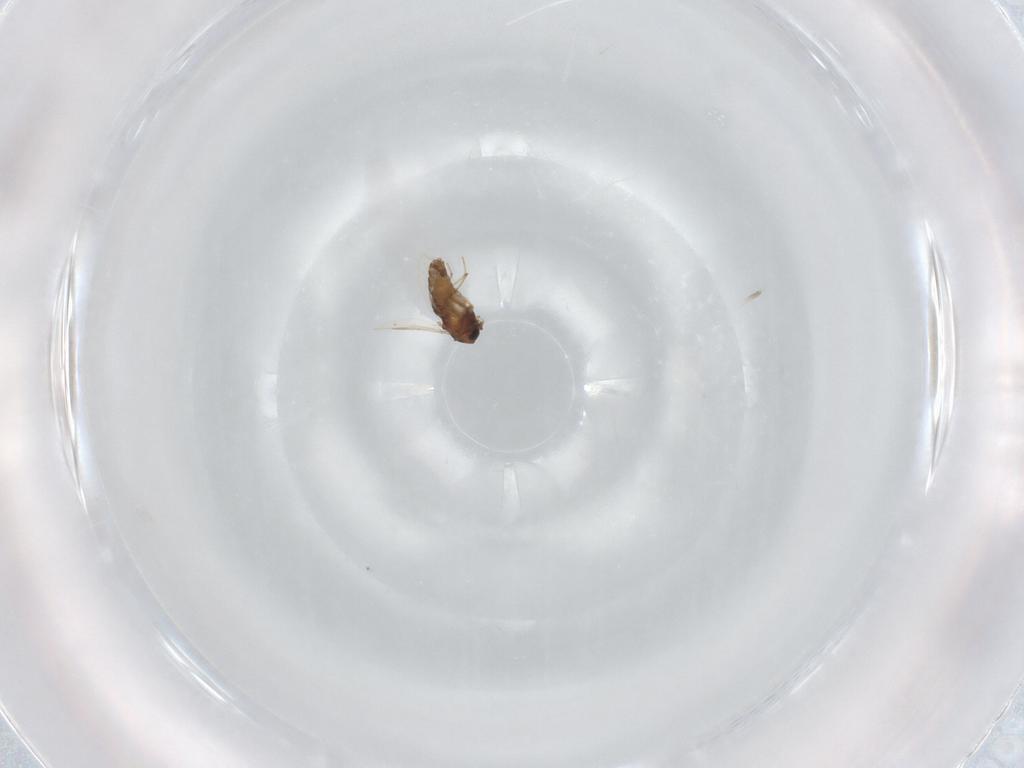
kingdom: Animalia
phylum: Arthropoda
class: Insecta
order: Diptera
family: Chironomidae
